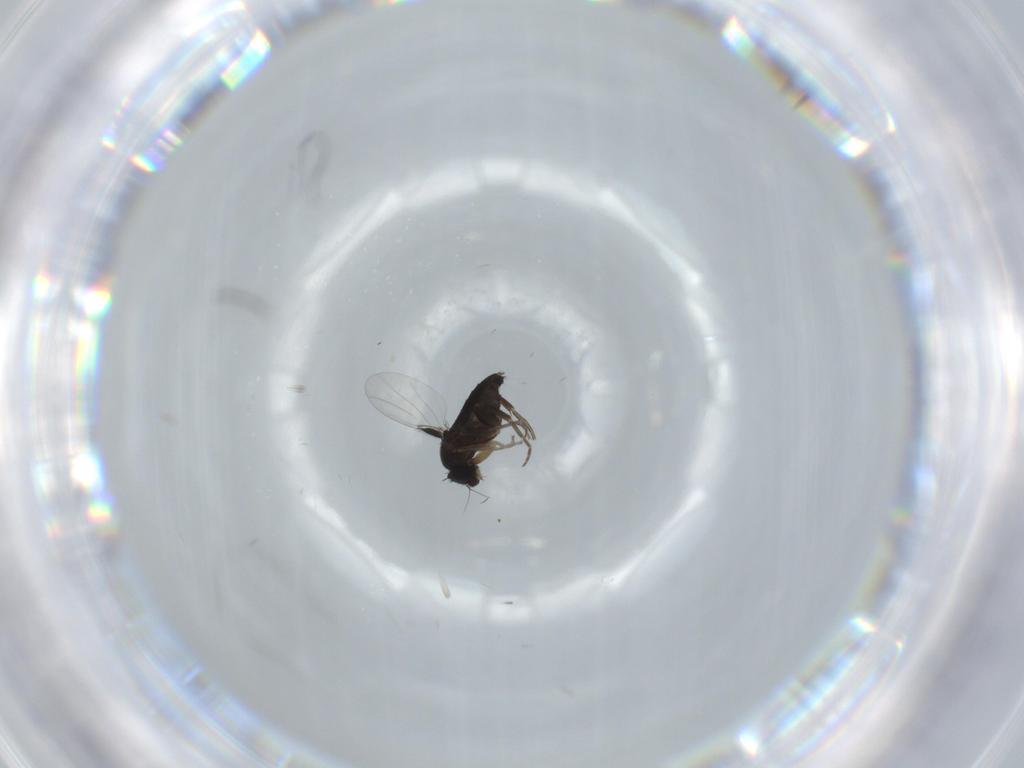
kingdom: Animalia
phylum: Arthropoda
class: Insecta
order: Diptera
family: Phoridae
